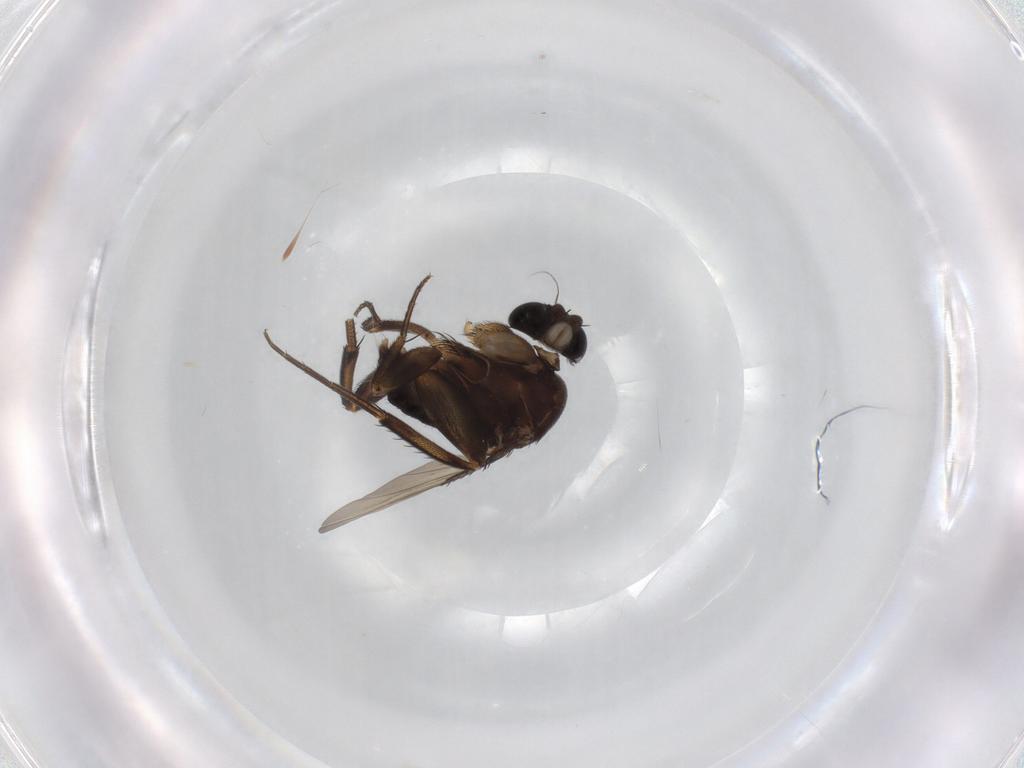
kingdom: Animalia
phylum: Arthropoda
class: Insecta
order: Diptera
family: Phoridae
